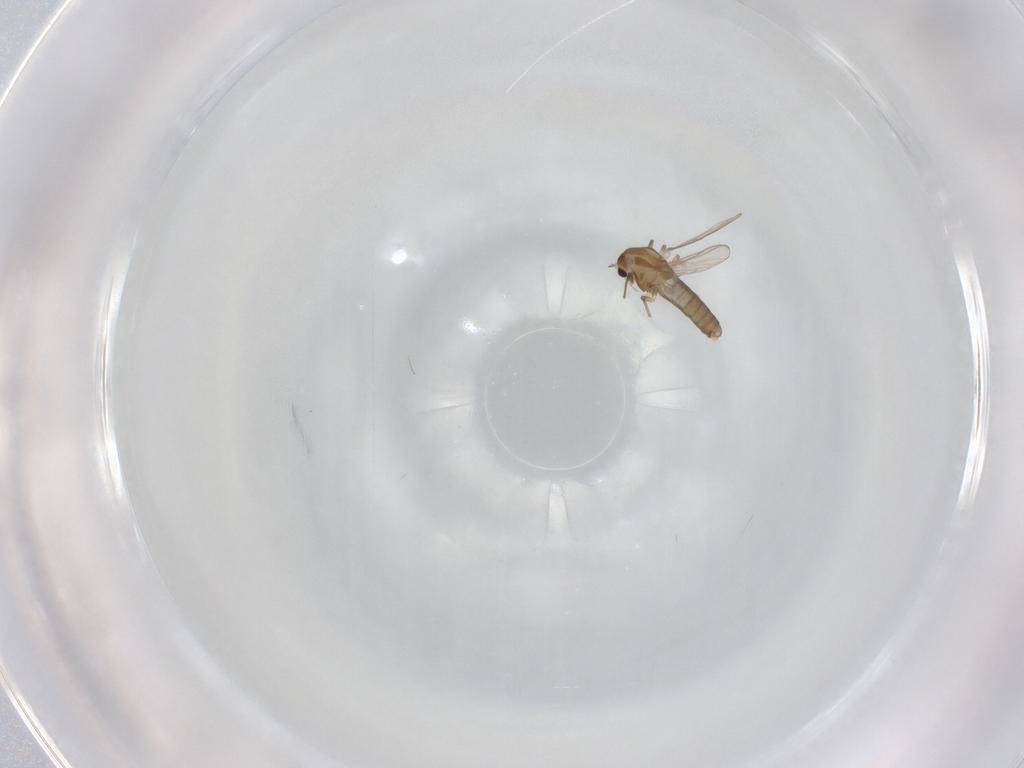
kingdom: Animalia
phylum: Arthropoda
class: Insecta
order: Diptera
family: Chironomidae
